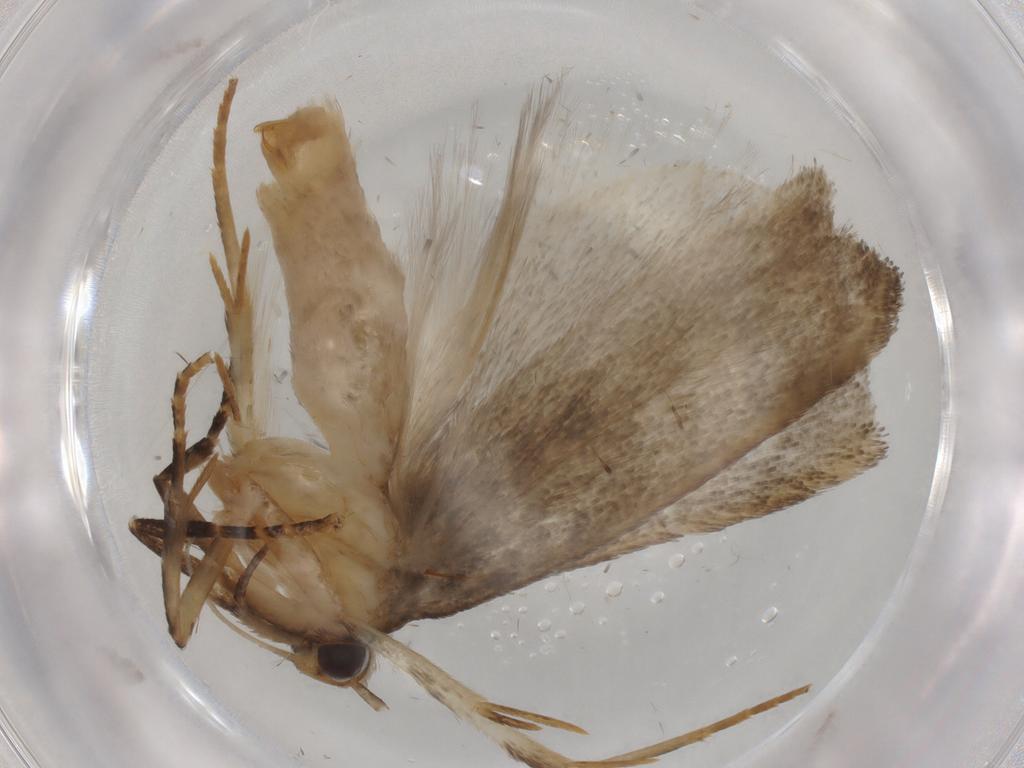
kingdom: Animalia
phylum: Arthropoda
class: Insecta
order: Lepidoptera
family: Gelechiidae
